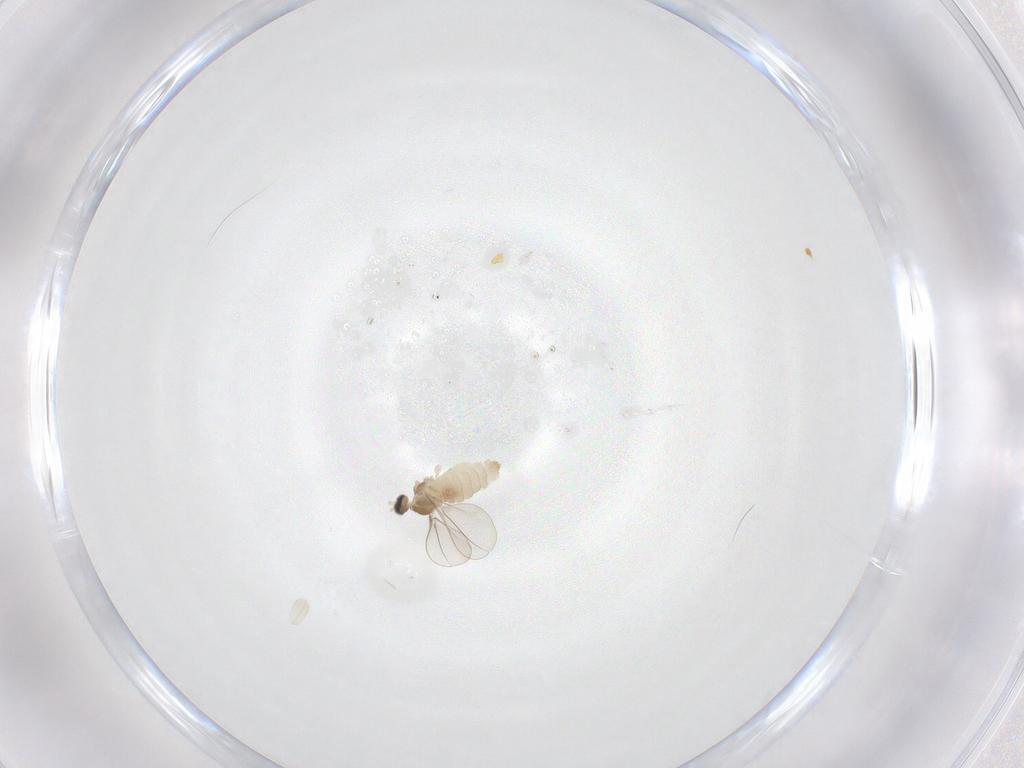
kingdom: Animalia
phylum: Arthropoda
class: Insecta
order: Diptera
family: Cecidomyiidae
